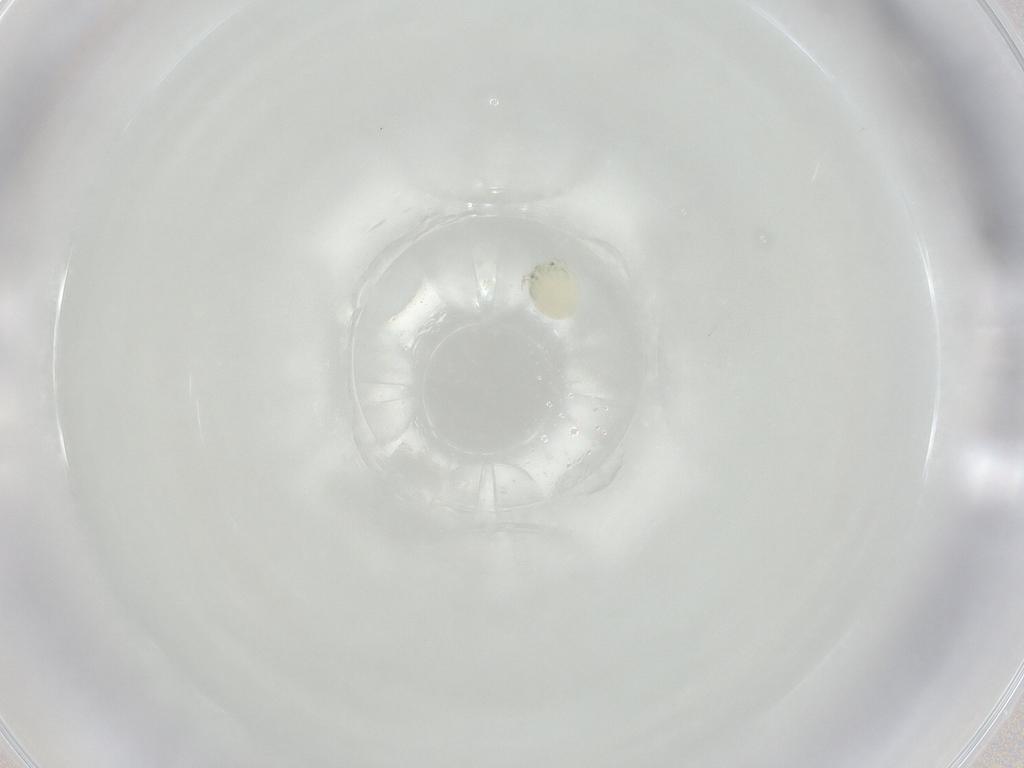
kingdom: Animalia
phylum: Arthropoda
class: Arachnida
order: Trombidiformes
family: Arrenuridae
